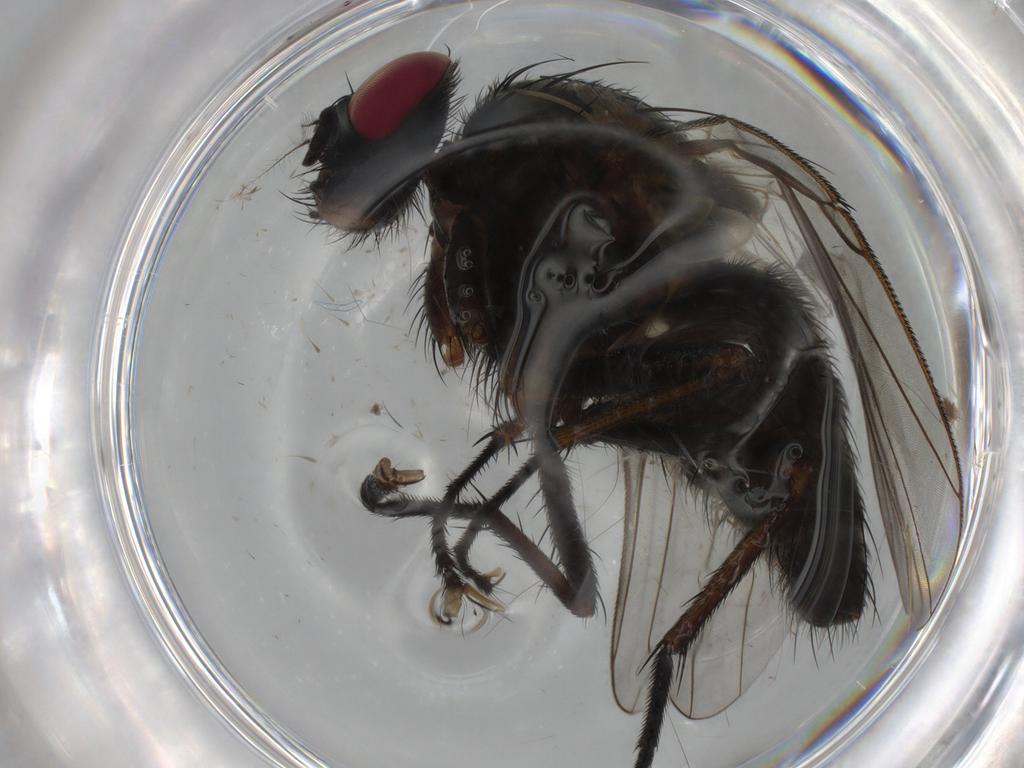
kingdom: Animalia
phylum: Arthropoda
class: Insecta
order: Diptera
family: Muscidae
